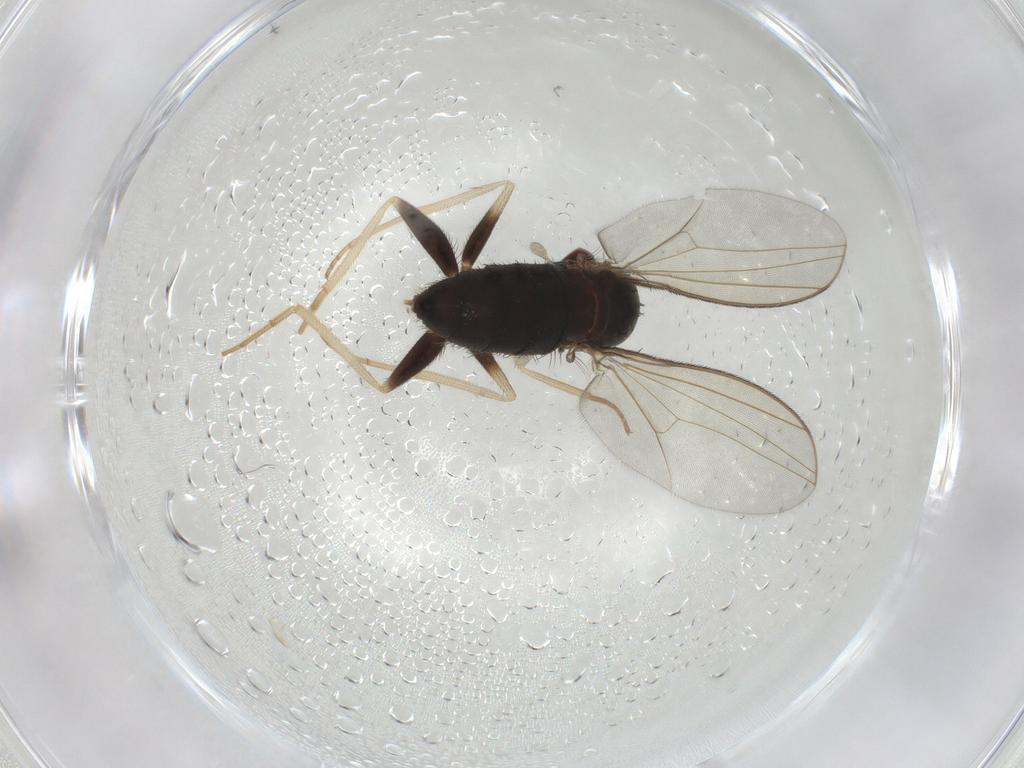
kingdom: Animalia
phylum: Arthropoda
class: Insecta
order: Diptera
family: Dolichopodidae
